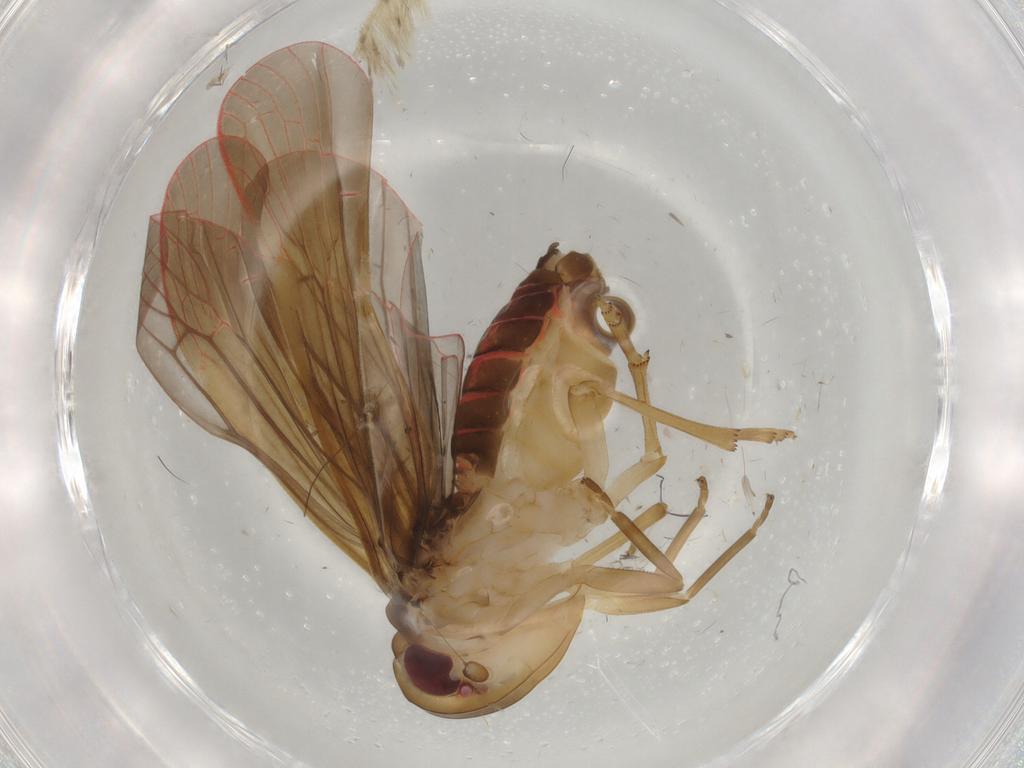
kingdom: Animalia
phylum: Arthropoda
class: Insecta
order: Hemiptera
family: Achilidae
